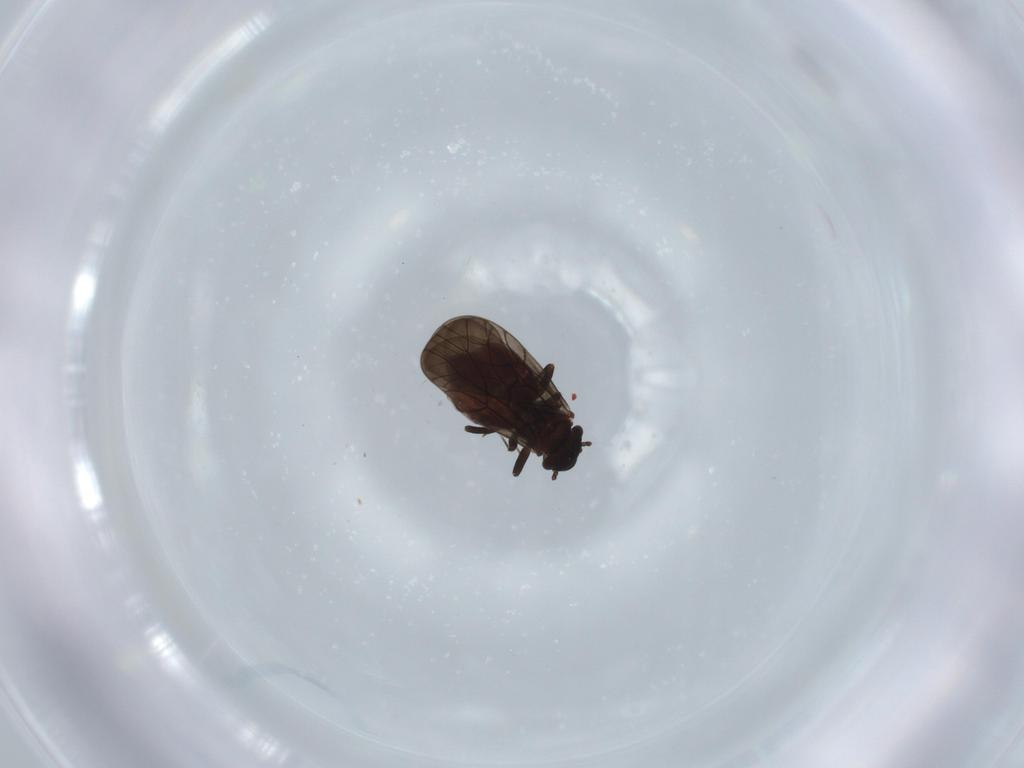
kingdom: Animalia
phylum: Arthropoda
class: Insecta
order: Psocodea
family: Lepidopsocidae
